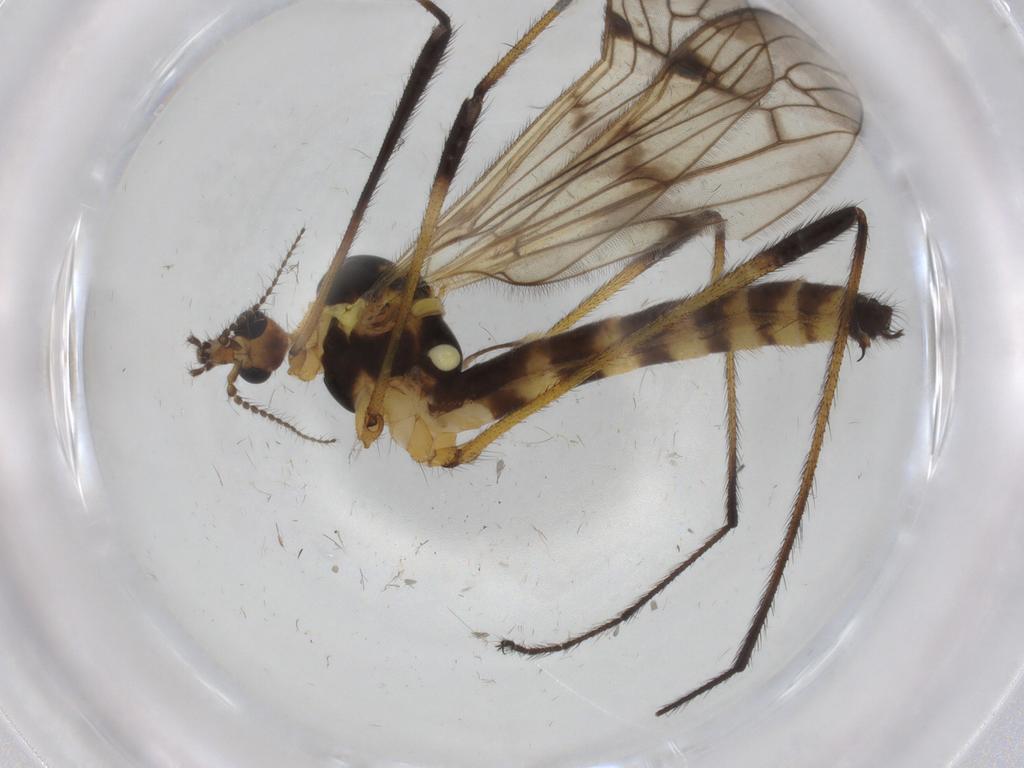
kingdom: Animalia
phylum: Arthropoda
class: Insecta
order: Diptera
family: Limoniidae
